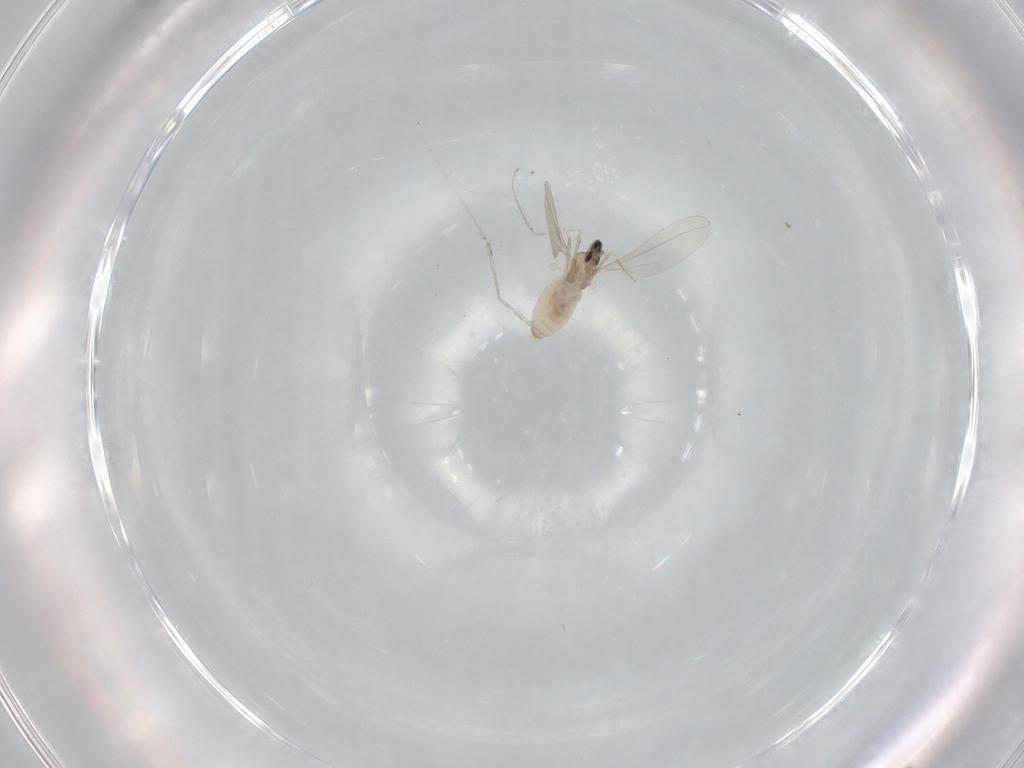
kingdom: Animalia
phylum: Arthropoda
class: Insecta
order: Diptera
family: Cecidomyiidae
